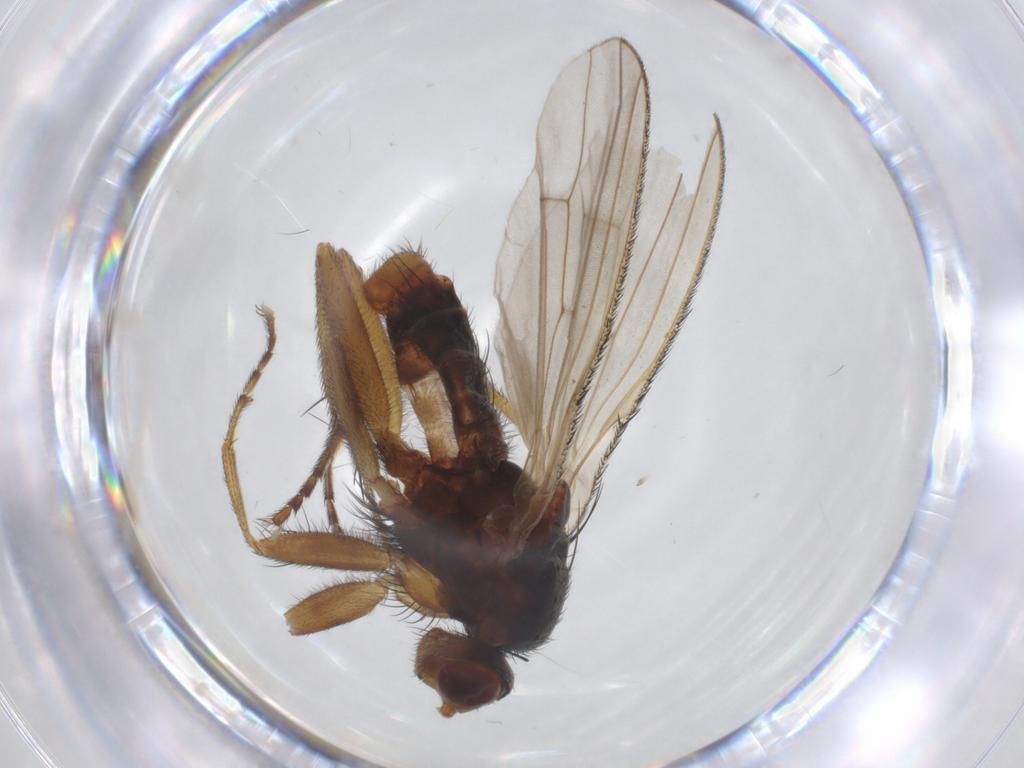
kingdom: Animalia
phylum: Arthropoda
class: Insecta
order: Diptera
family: Heleomyzidae
